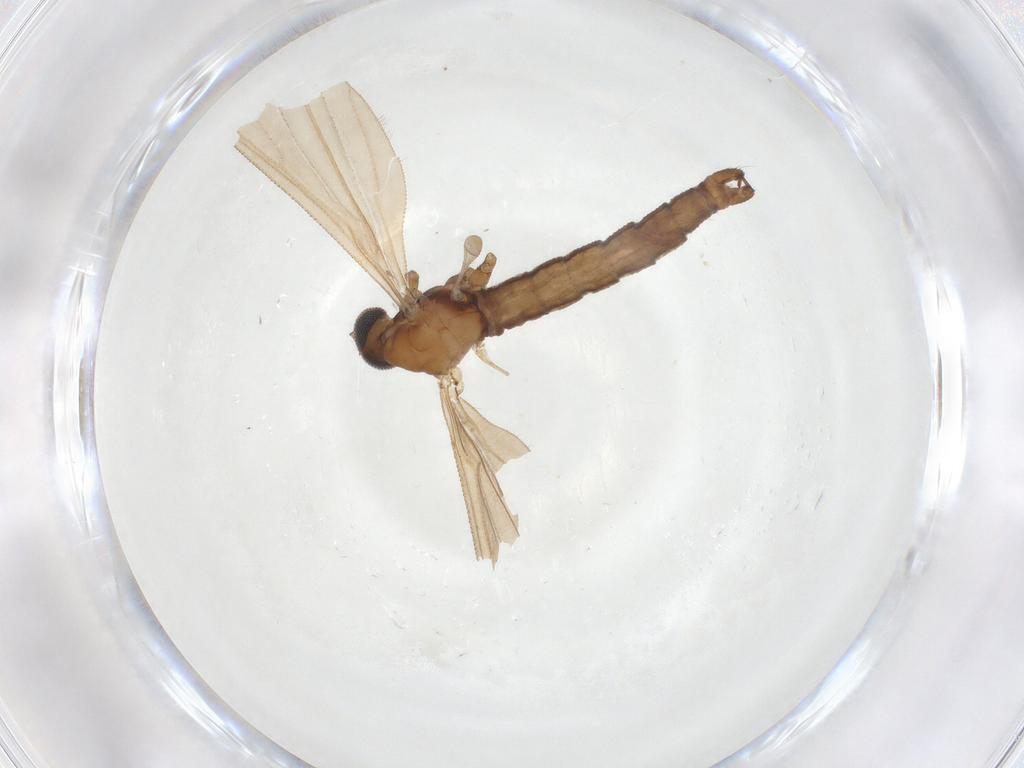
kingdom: Animalia
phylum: Arthropoda
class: Insecta
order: Diptera
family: Limoniidae
